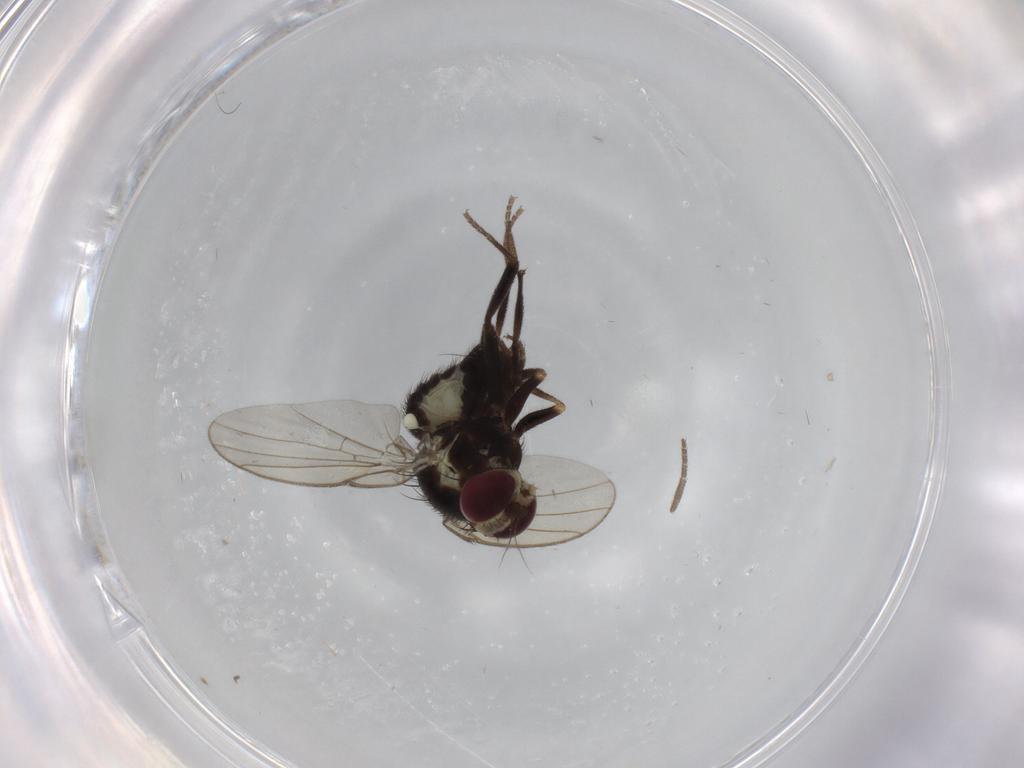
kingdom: Animalia
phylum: Arthropoda
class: Insecta
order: Diptera
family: Agromyzidae
